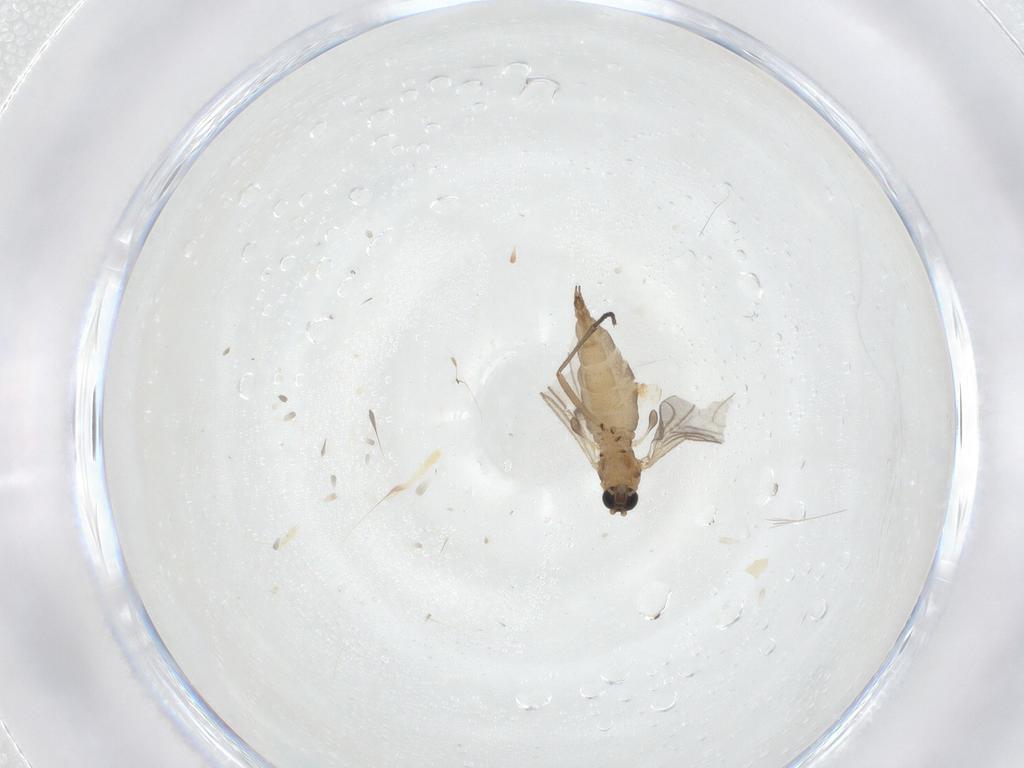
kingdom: Animalia
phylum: Arthropoda
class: Insecta
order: Diptera
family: Sciaridae
